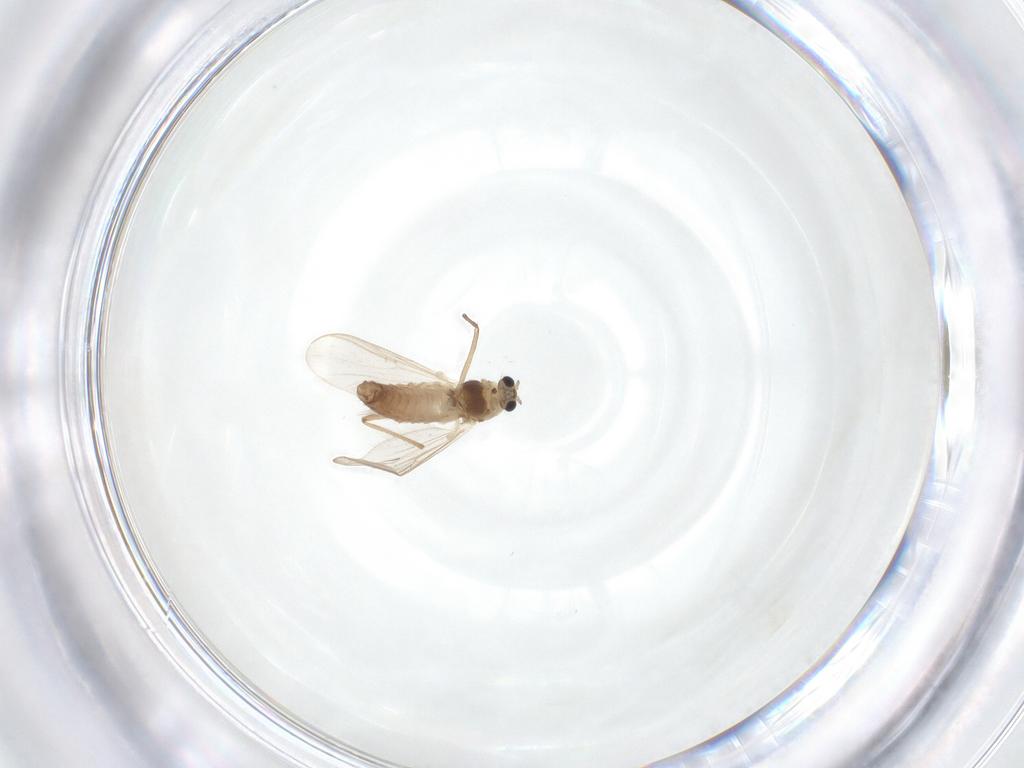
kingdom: Animalia
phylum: Arthropoda
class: Insecta
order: Diptera
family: Chironomidae
